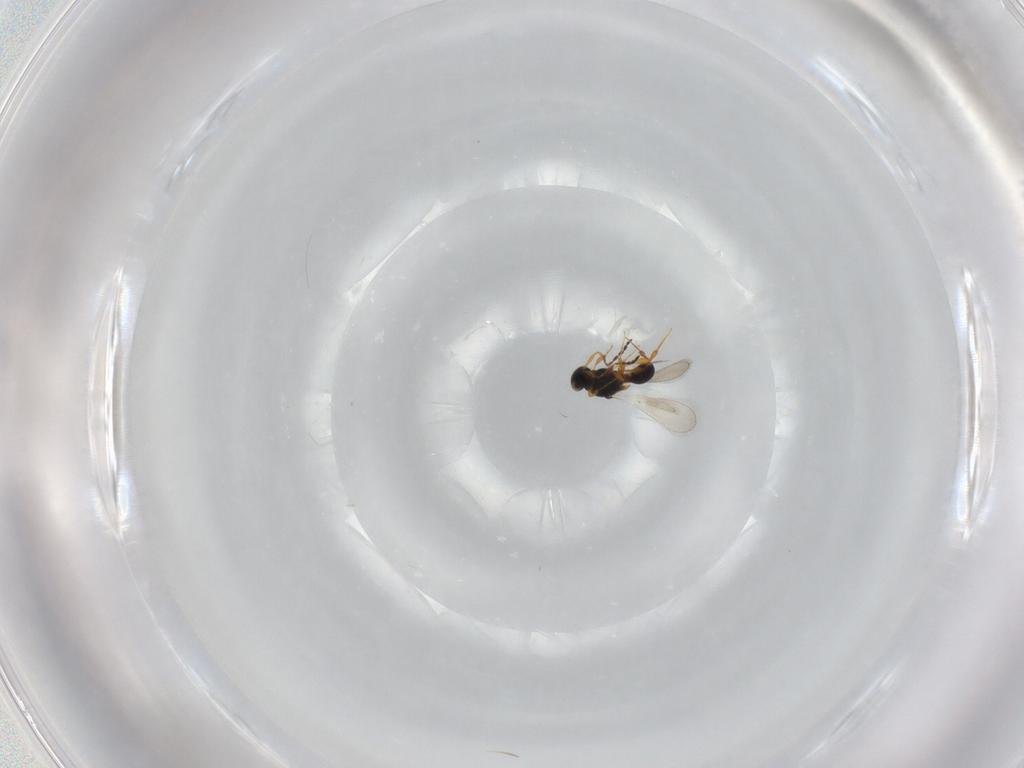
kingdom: Animalia
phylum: Arthropoda
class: Insecta
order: Hymenoptera
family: Platygastridae
